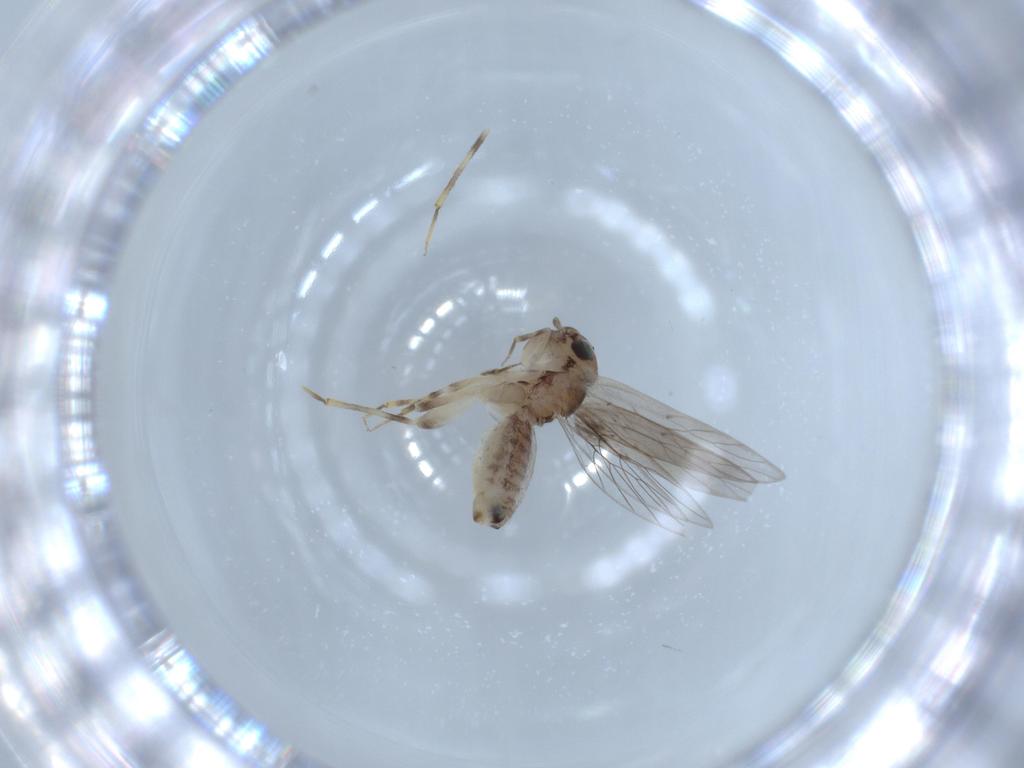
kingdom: Animalia
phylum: Arthropoda
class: Insecta
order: Psocodea
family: Lepidopsocidae
